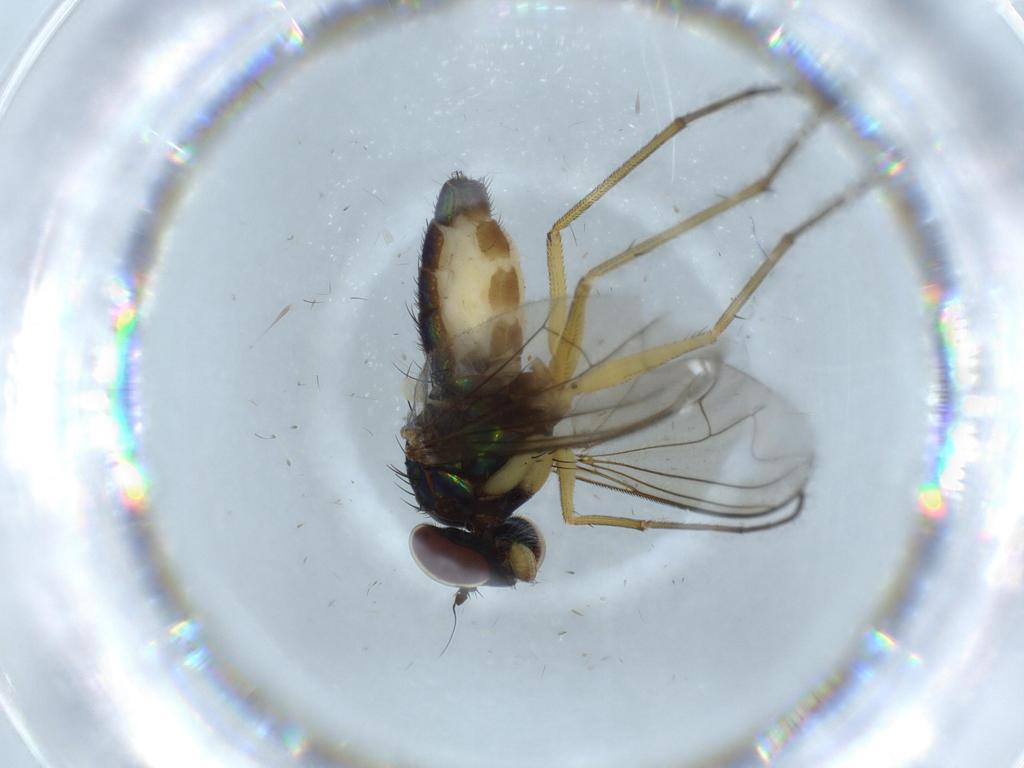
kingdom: Animalia
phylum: Arthropoda
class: Insecta
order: Diptera
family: Dolichopodidae
